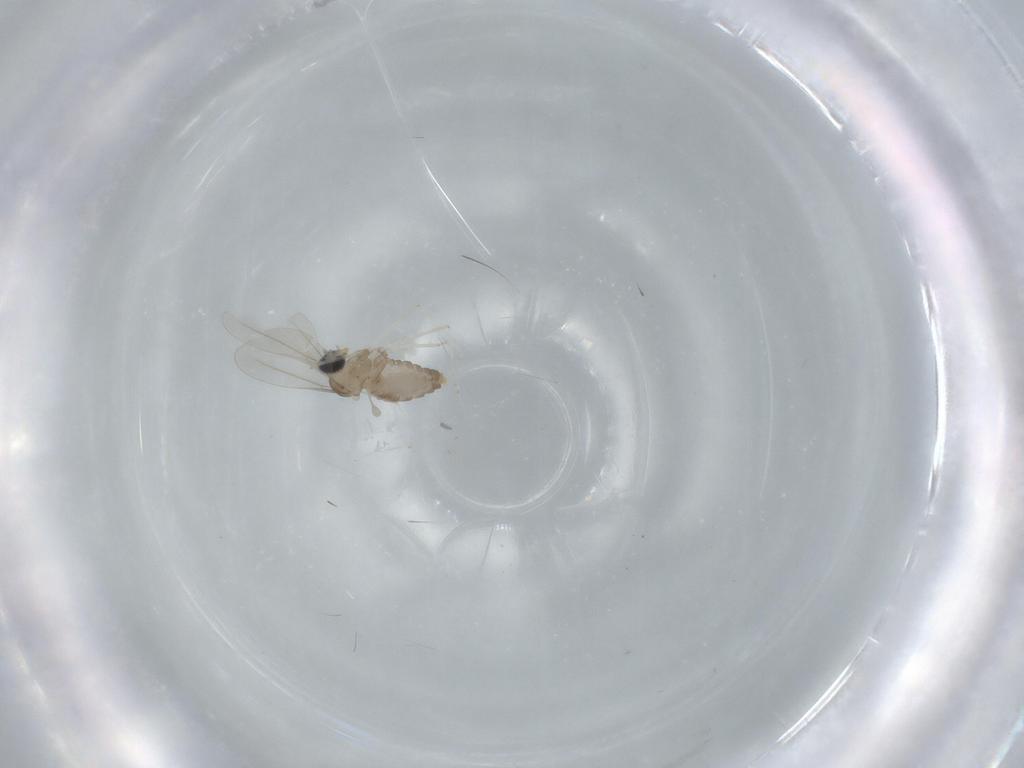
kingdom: Animalia
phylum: Arthropoda
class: Insecta
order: Diptera
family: Cecidomyiidae
